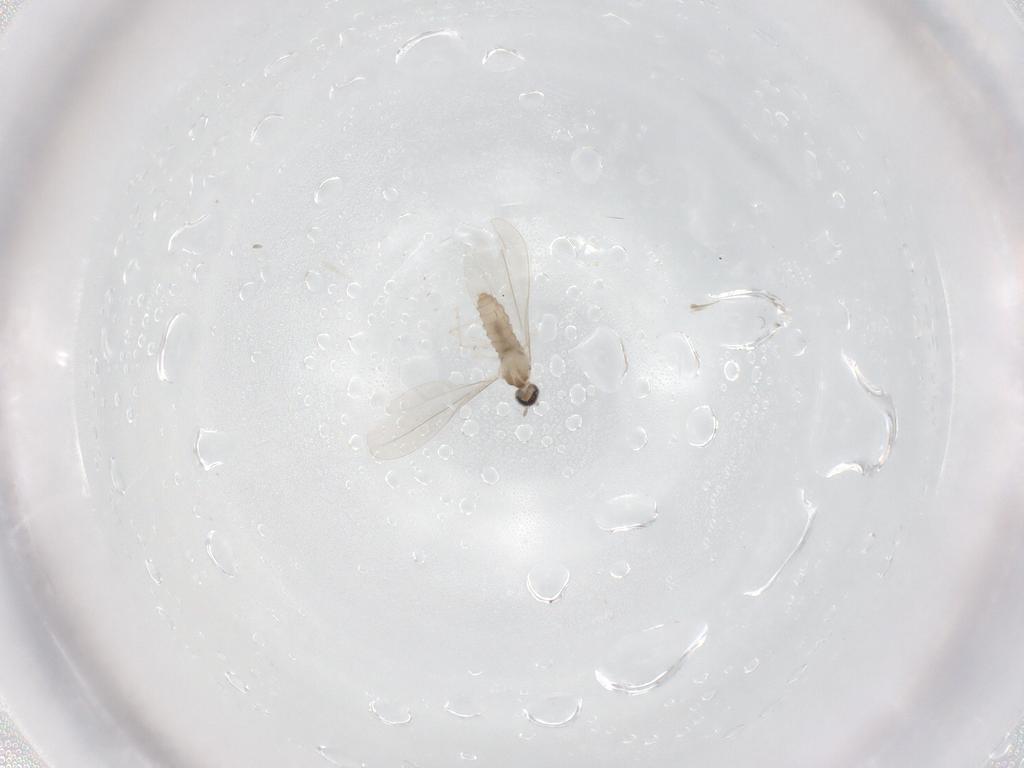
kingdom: Animalia
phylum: Arthropoda
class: Insecta
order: Diptera
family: Cecidomyiidae
